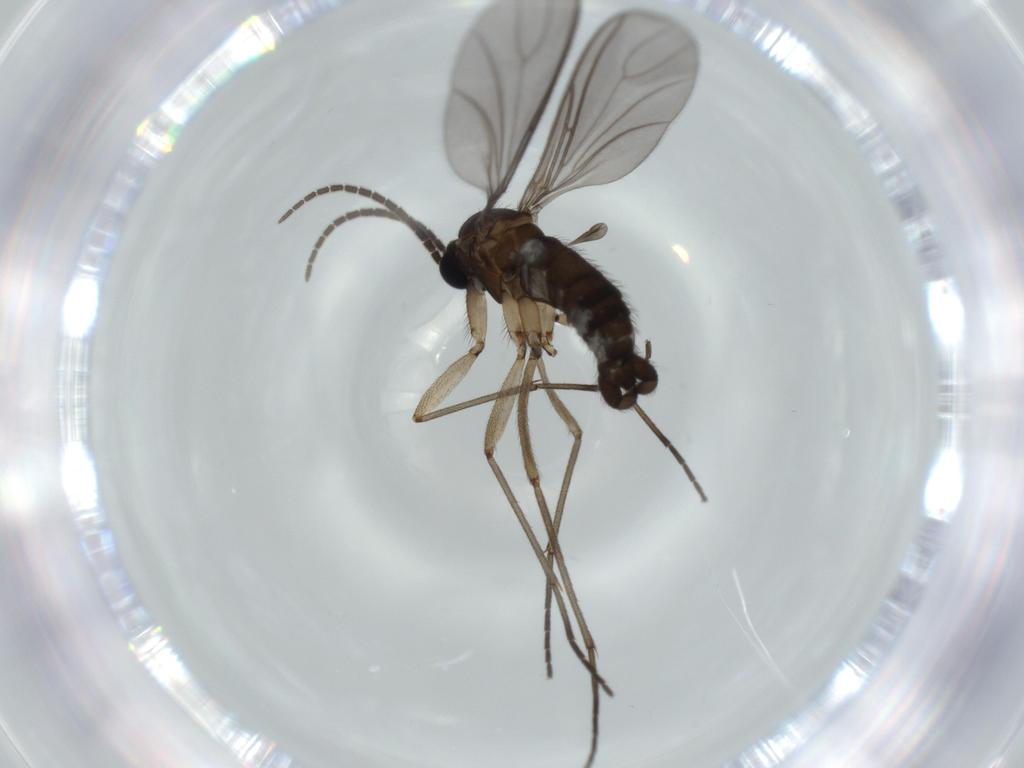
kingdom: Animalia
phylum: Arthropoda
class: Insecta
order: Diptera
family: Sciaridae
